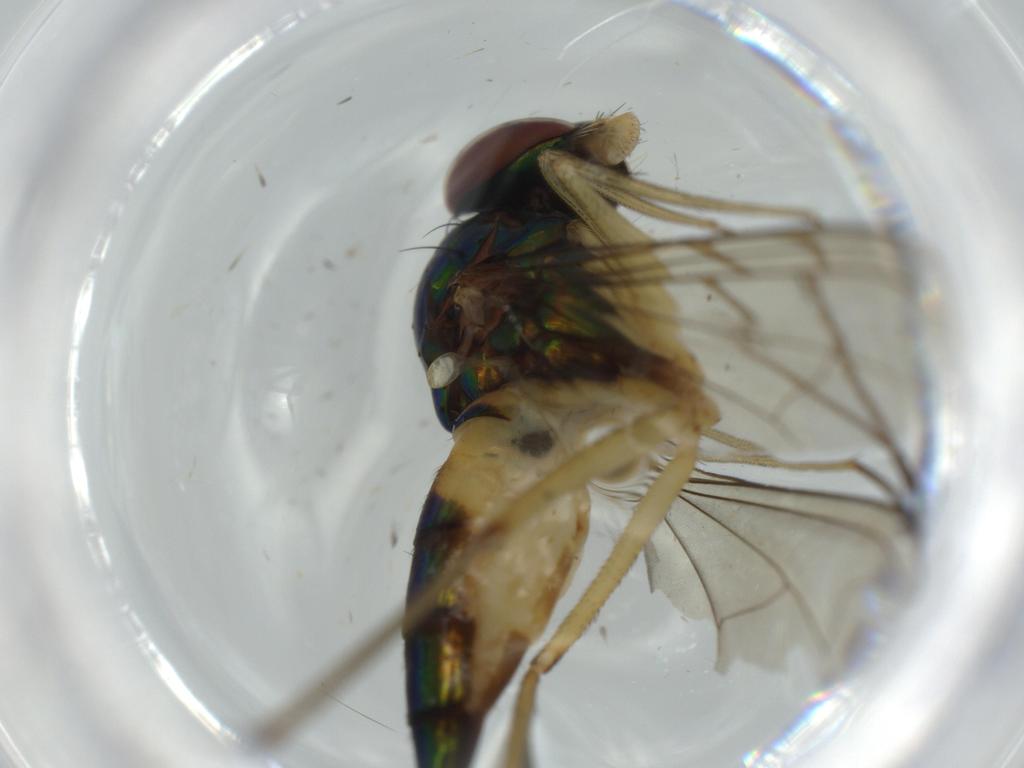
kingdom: Animalia
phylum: Arthropoda
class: Insecta
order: Diptera
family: Dolichopodidae
